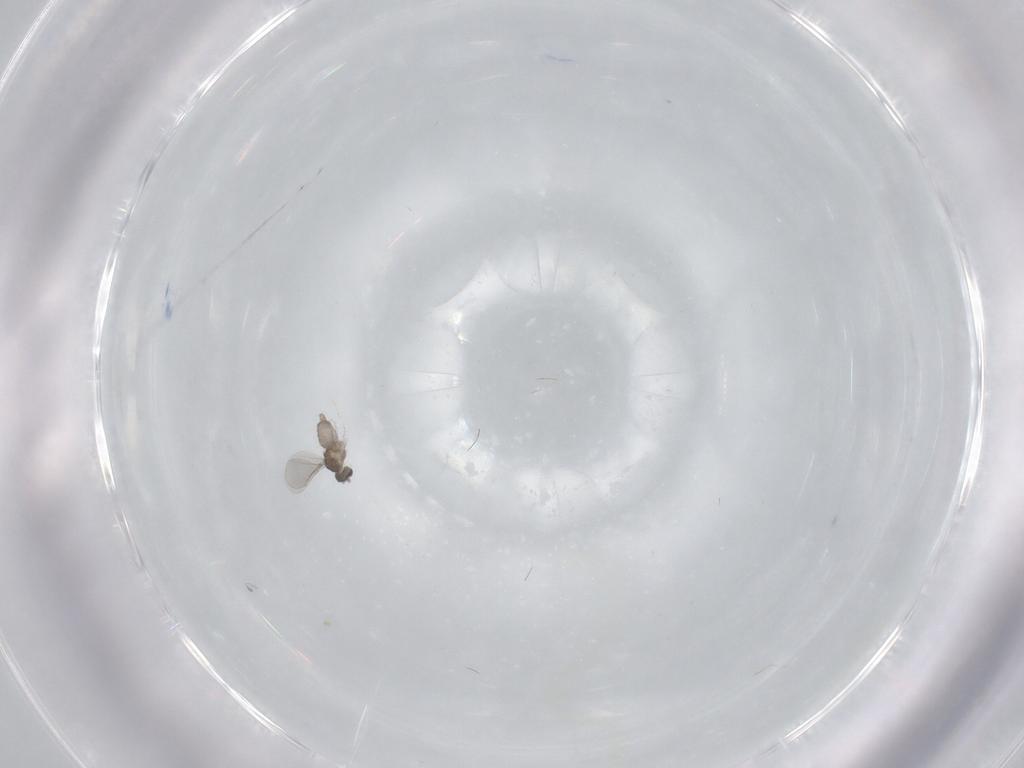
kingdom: Animalia
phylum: Arthropoda
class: Insecta
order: Diptera
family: Cecidomyiidae
